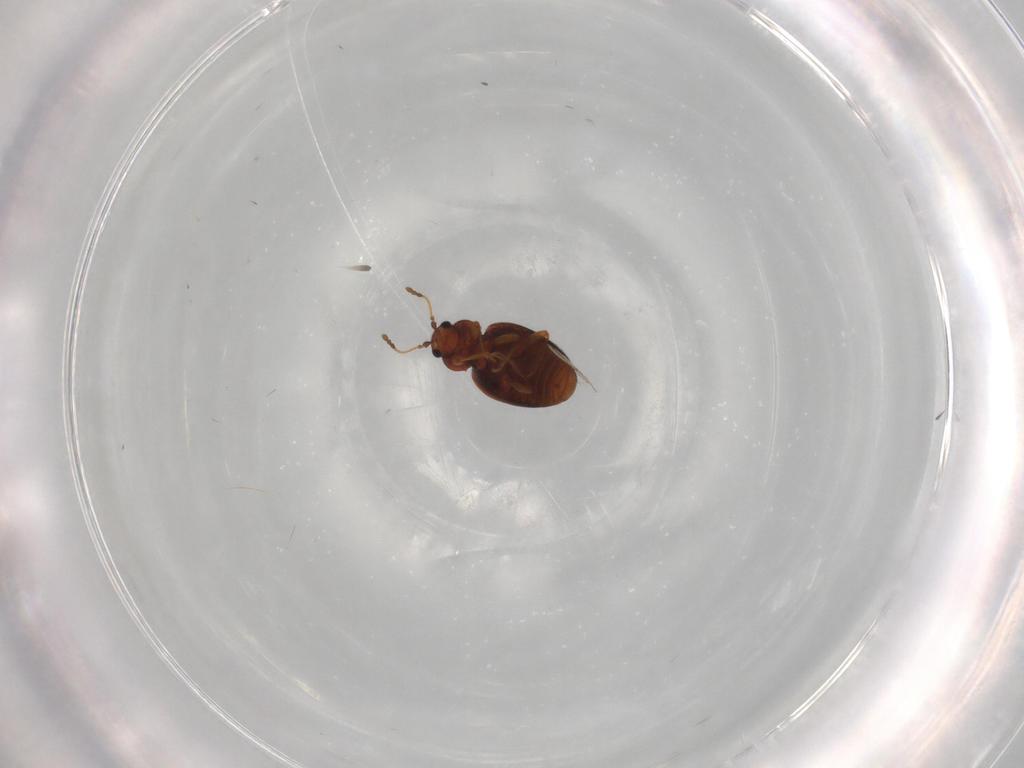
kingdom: Animalia
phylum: Arthropoda
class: Insecta
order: Coleoptera
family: Latridiidae
